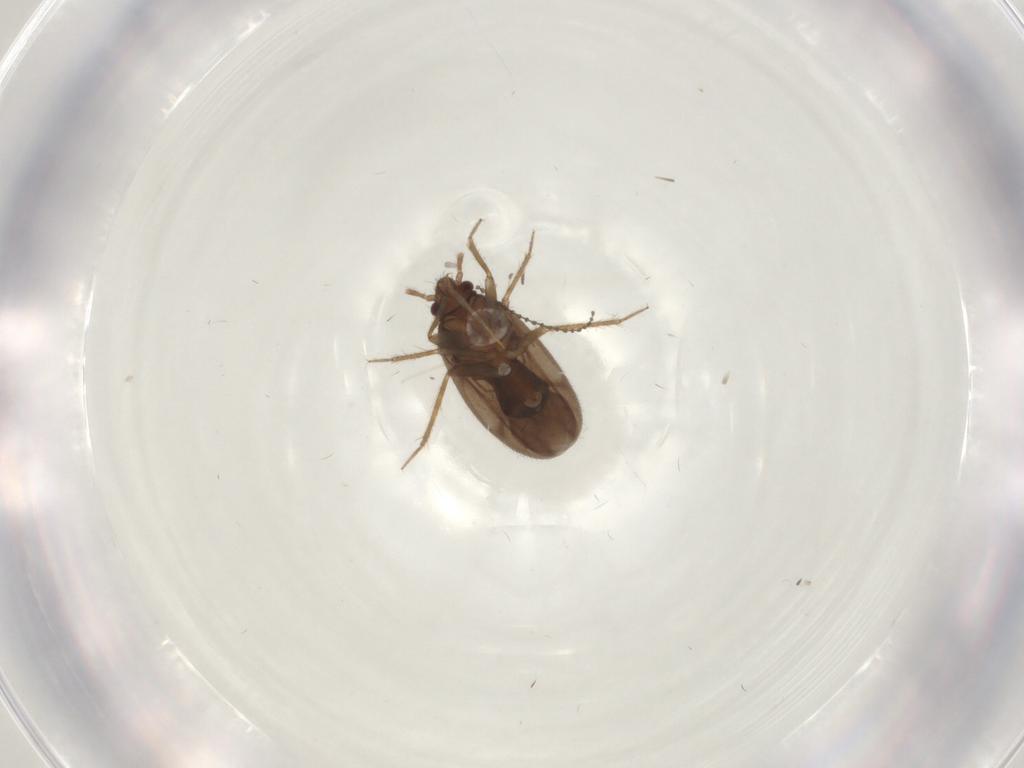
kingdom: Animalia
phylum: Arthropoda
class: Insecta
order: Hemiptera
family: Ceratocombidae
